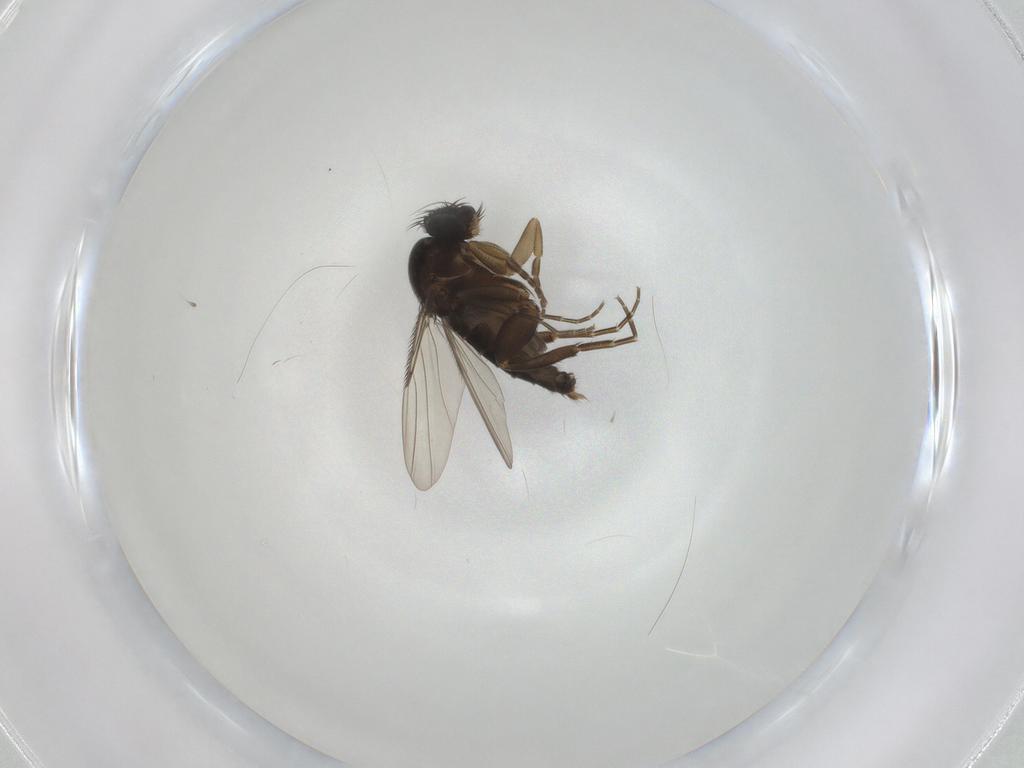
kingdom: Animalia
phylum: Arthropoda
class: Insecta
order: Diptera
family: Phoridae
